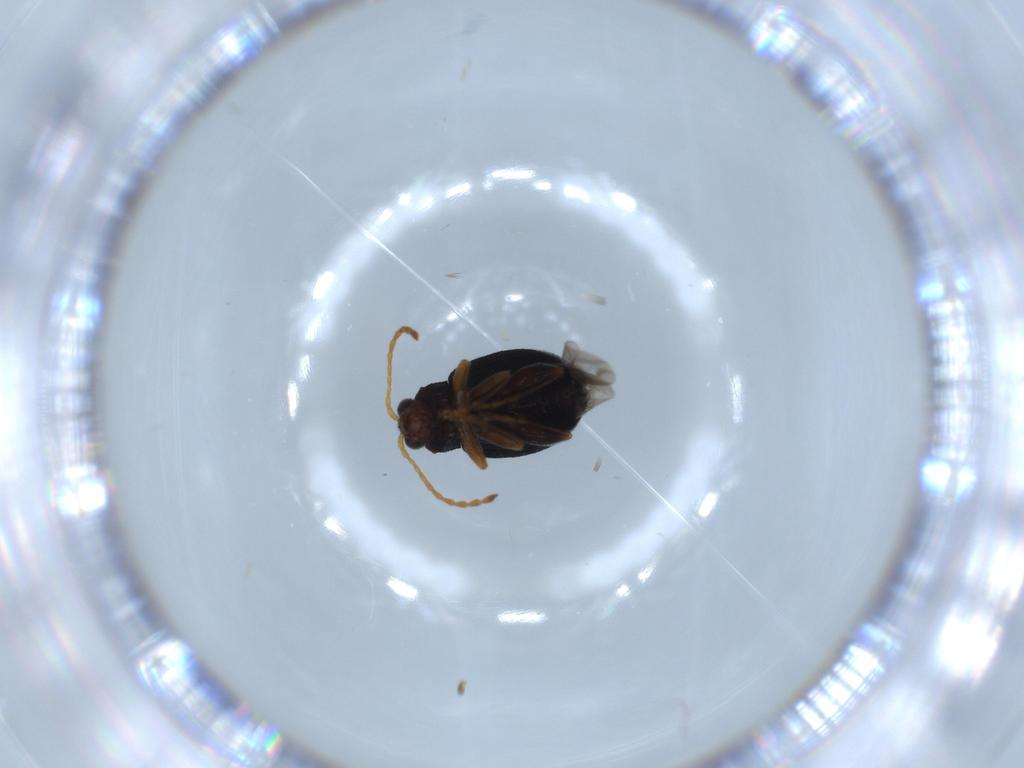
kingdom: Animalia
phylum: Arthropoda
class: Insecta
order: Coleoptera
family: Chrysomelidae
